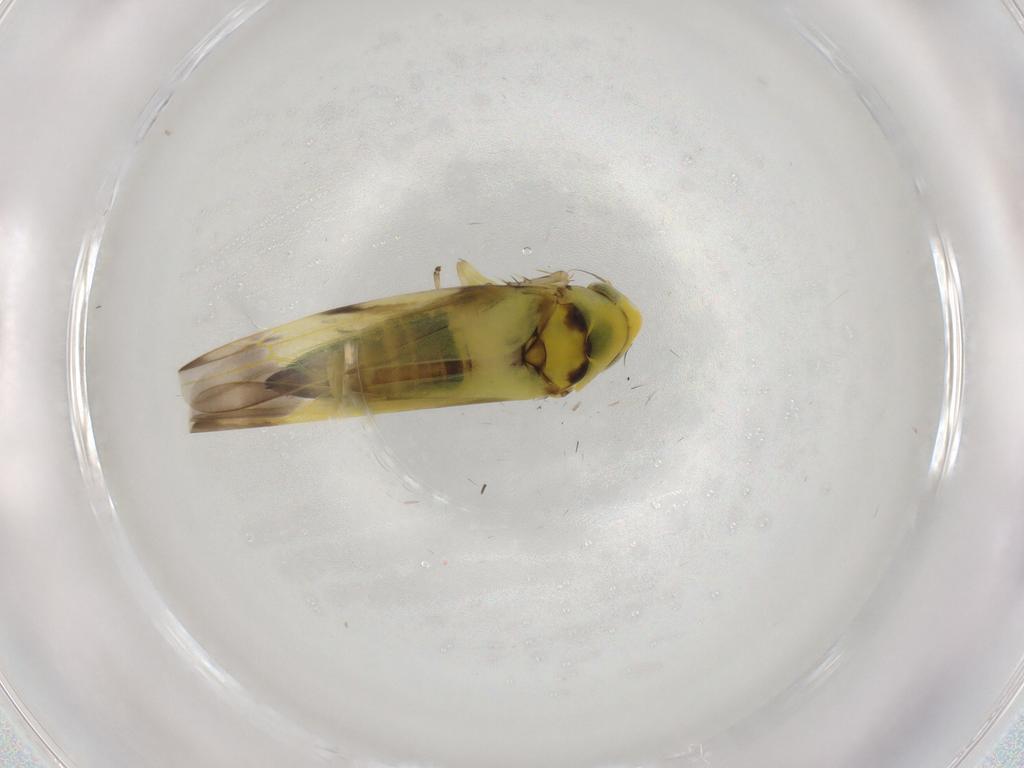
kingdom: Animalia
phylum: Arthropoda
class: Insecta
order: Hemiptera
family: Cicadellidae
